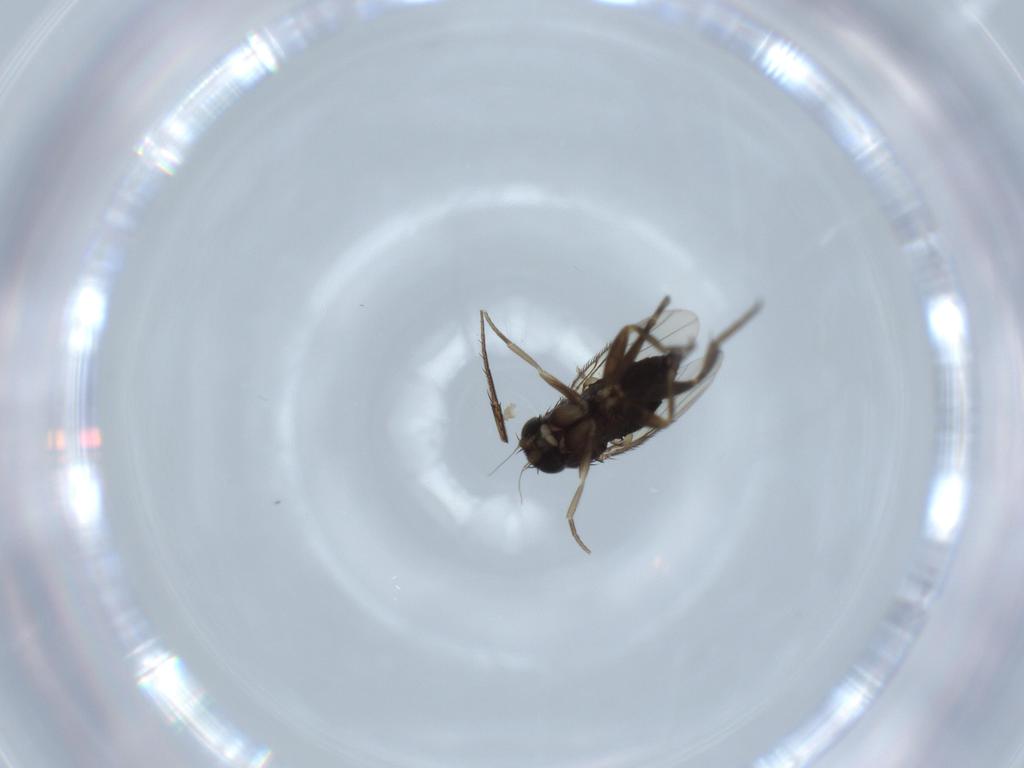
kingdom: Animalia
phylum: Arthropoda
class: Insecta
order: Diptera
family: Phoridae
